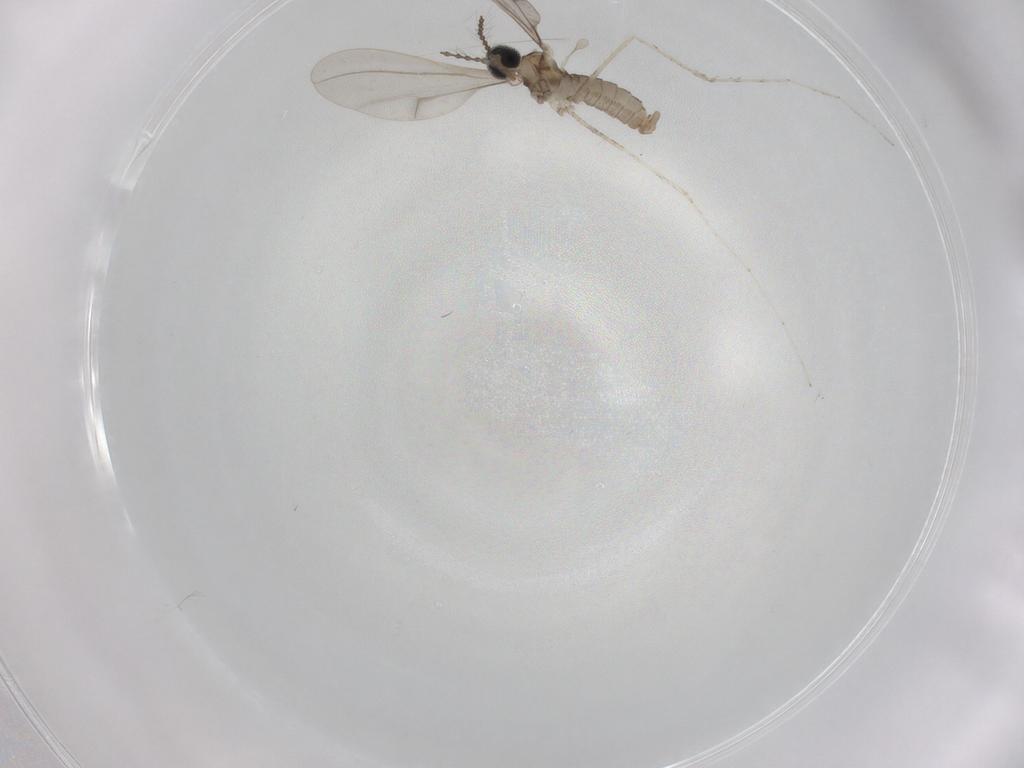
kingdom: Animalia
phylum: Arthropoda
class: Insecta
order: Diptera
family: Cecidomyiidae
